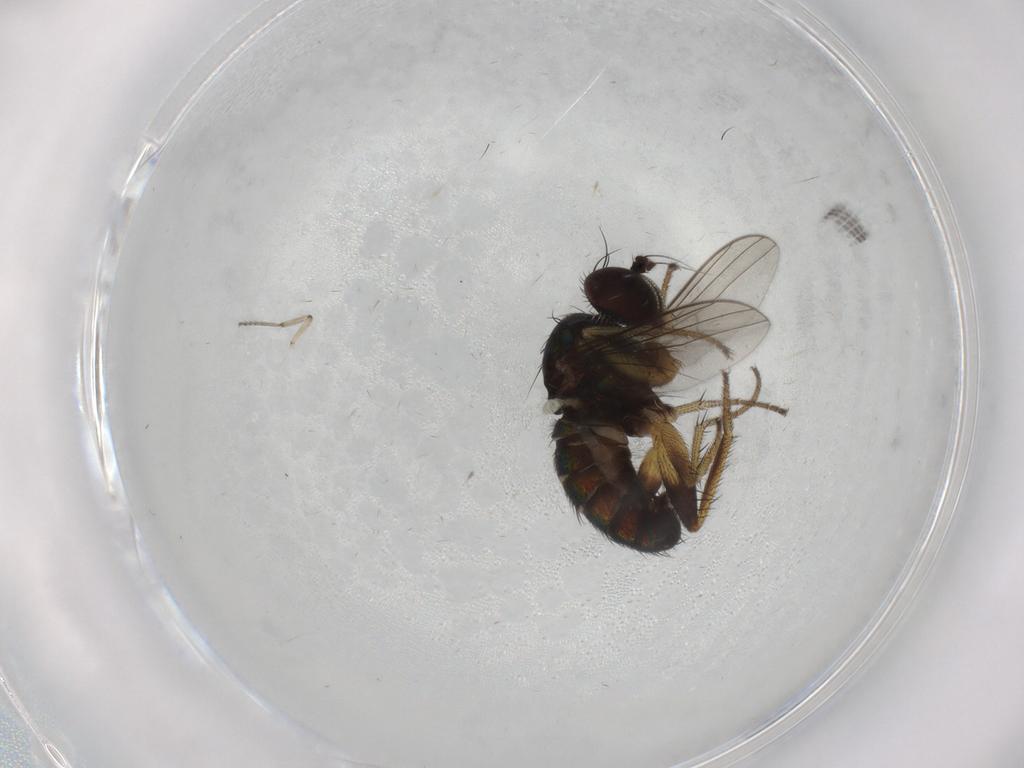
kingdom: Animalia
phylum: Arthropoda
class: Insecta
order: Diptera
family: Dolichopodidae
